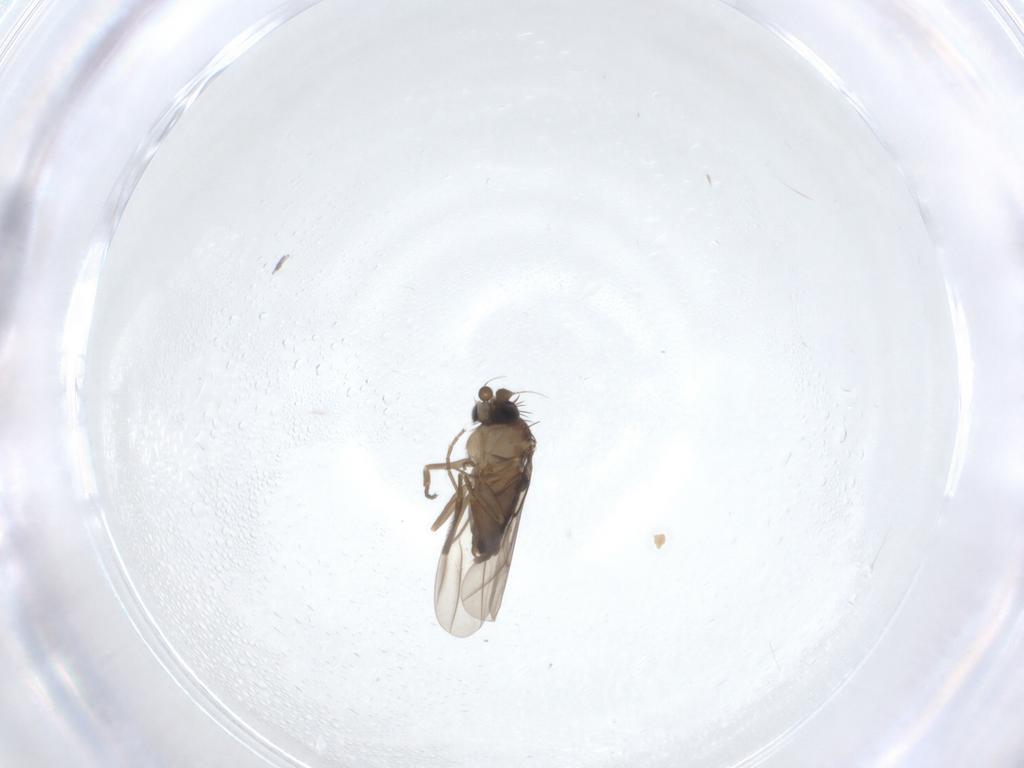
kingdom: Animalia
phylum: Arthropoda
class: Insecta
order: Diptera
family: Phoridae
